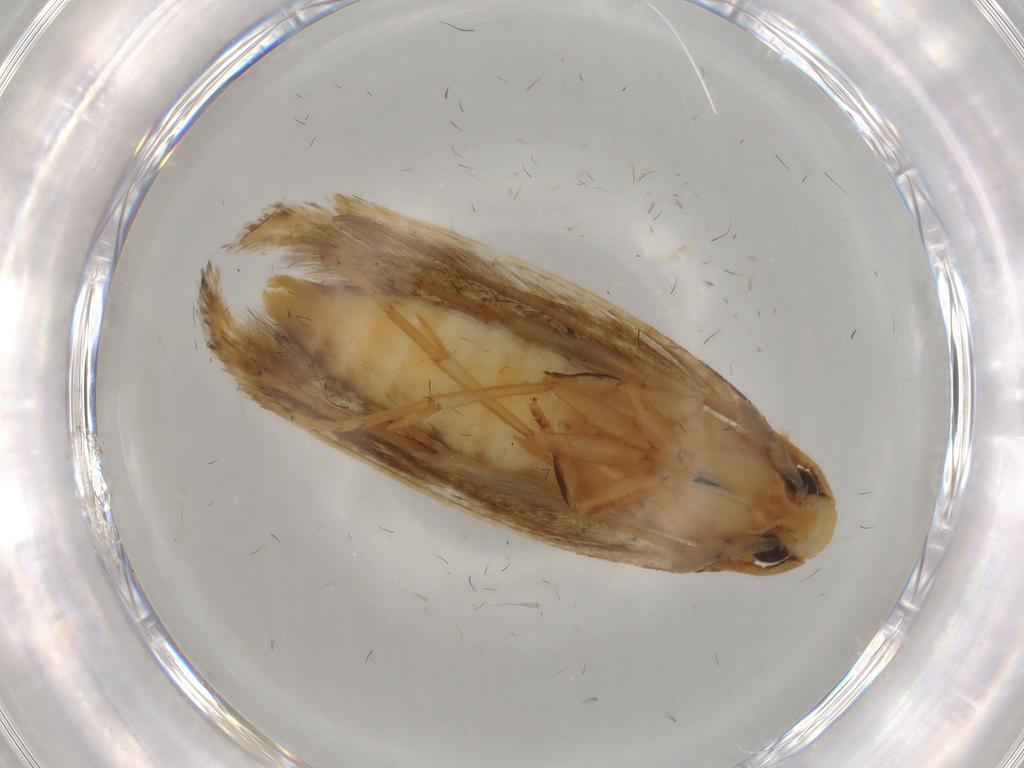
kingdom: Animalia
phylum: Arthropoda
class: Insecta
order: Lepidoptera
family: Tineidae
